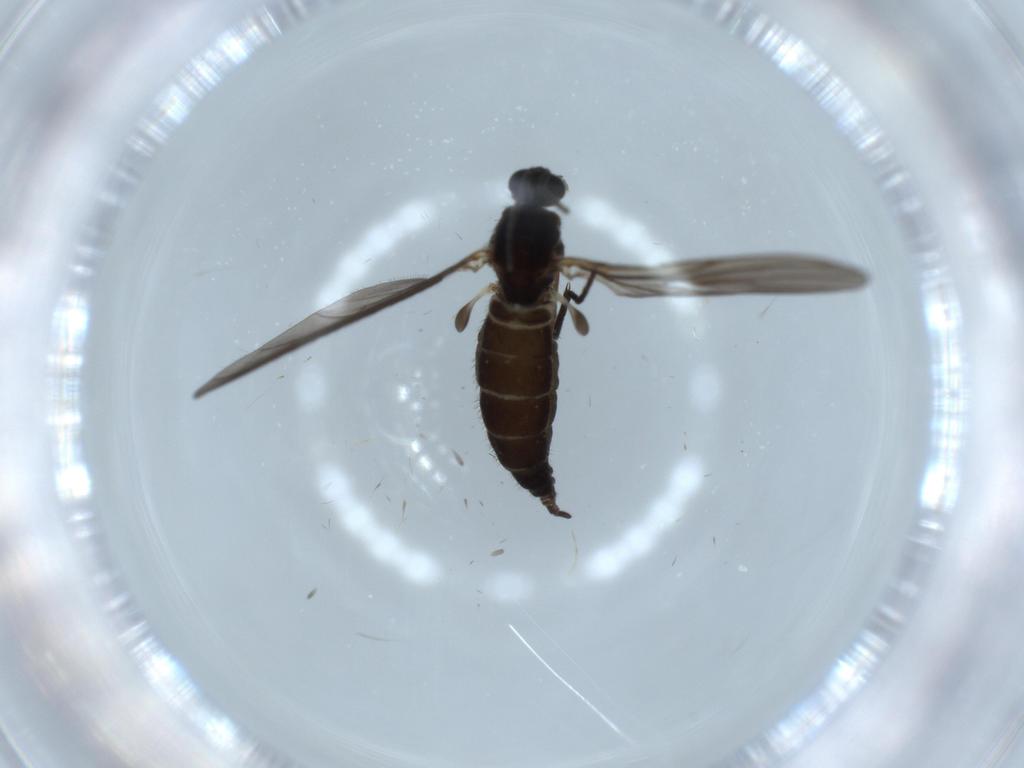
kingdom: Animalia
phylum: Arthropoda
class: Insecta
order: Diptera
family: Sciaridae
